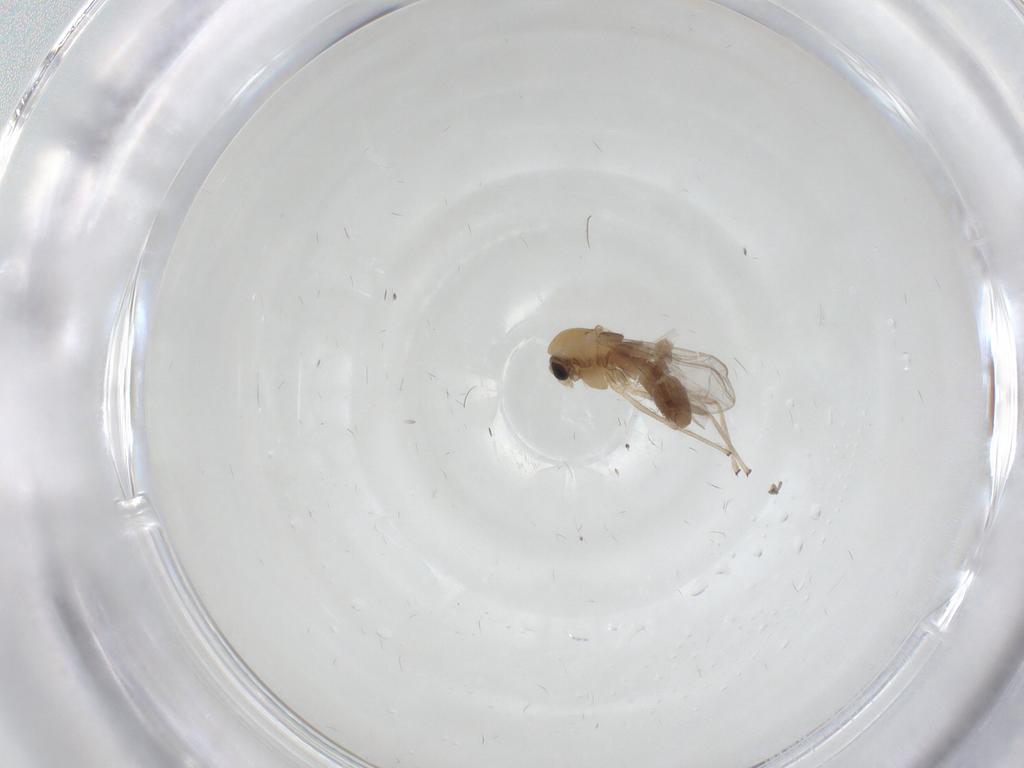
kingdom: Animalia
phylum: Arthropoda
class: Insecta
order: Diptera
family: Chironomidae
